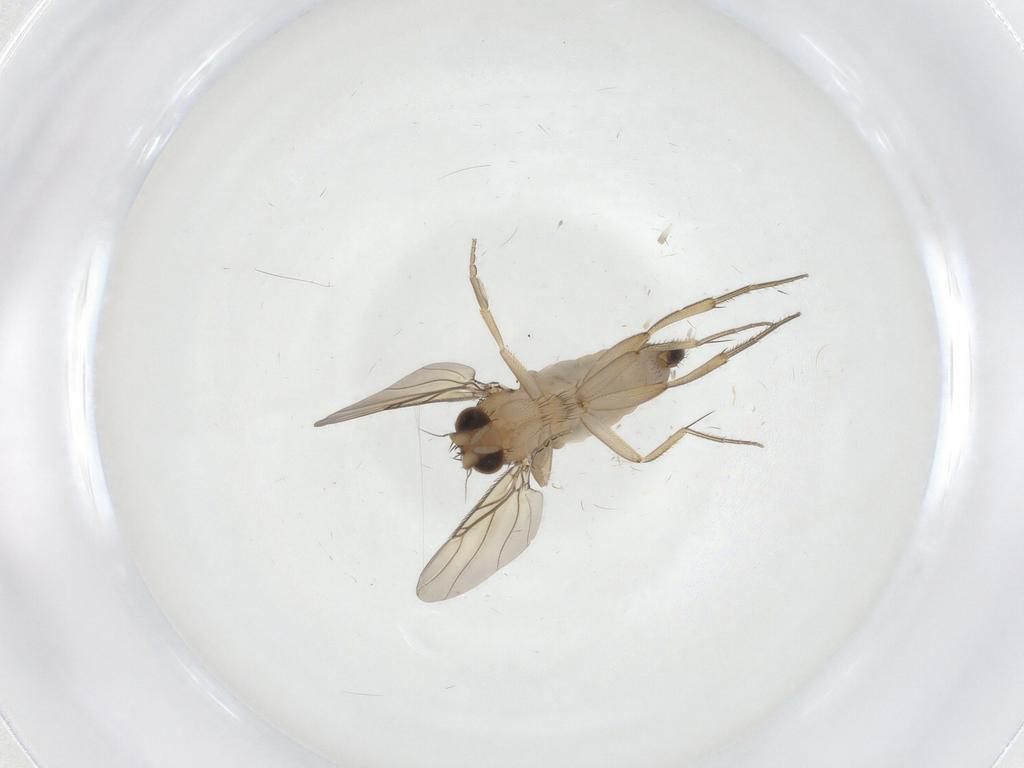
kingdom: Animalia
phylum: Arthropoda
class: Insecta
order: Diptera
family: Phoridae
